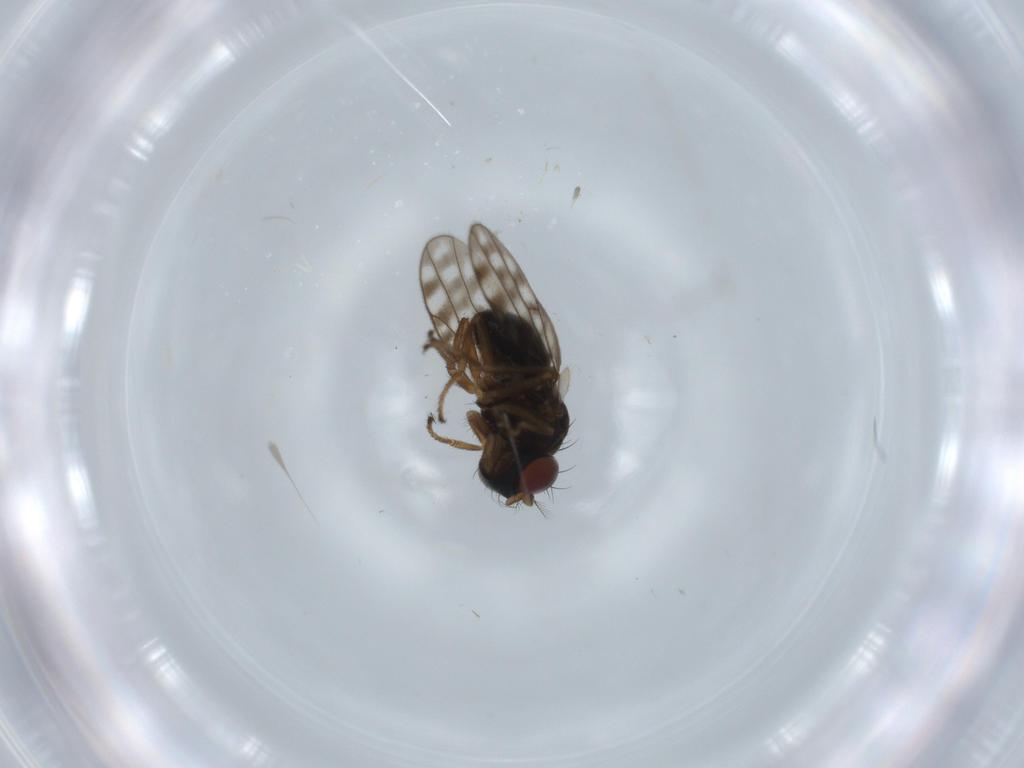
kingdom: Animalia
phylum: Arthropoda
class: Insecta
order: Diptera
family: Ephydridae
